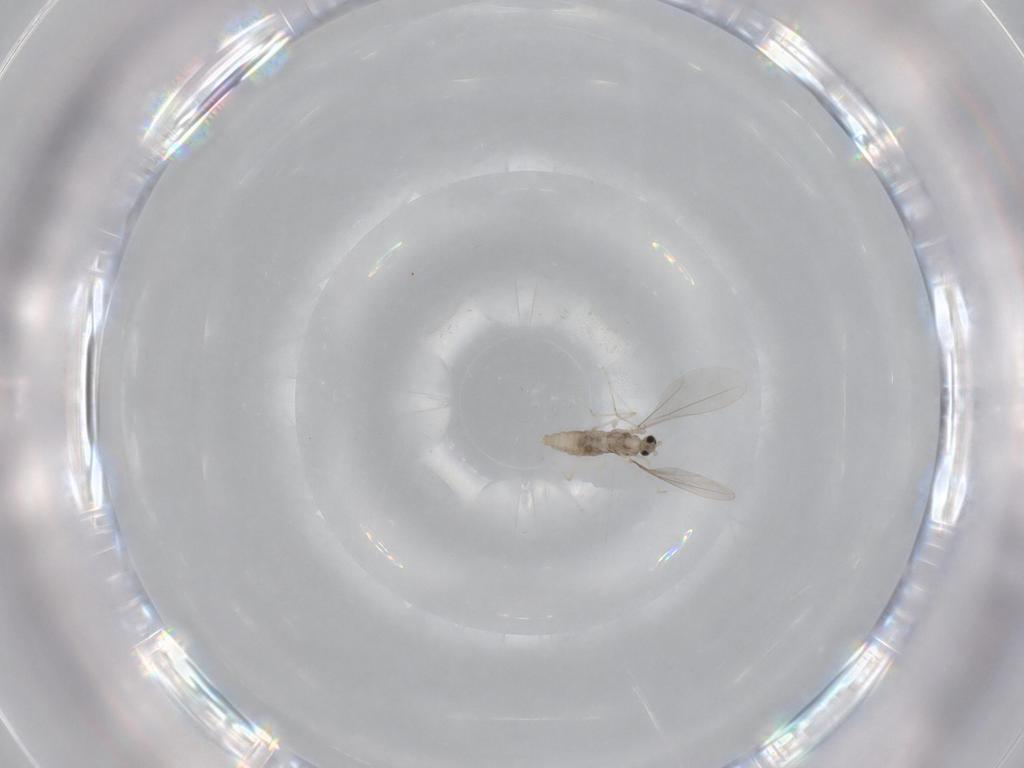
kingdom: Animalia
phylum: Arthropoda
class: Insecta
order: Diptera
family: Cecidomyiidae
